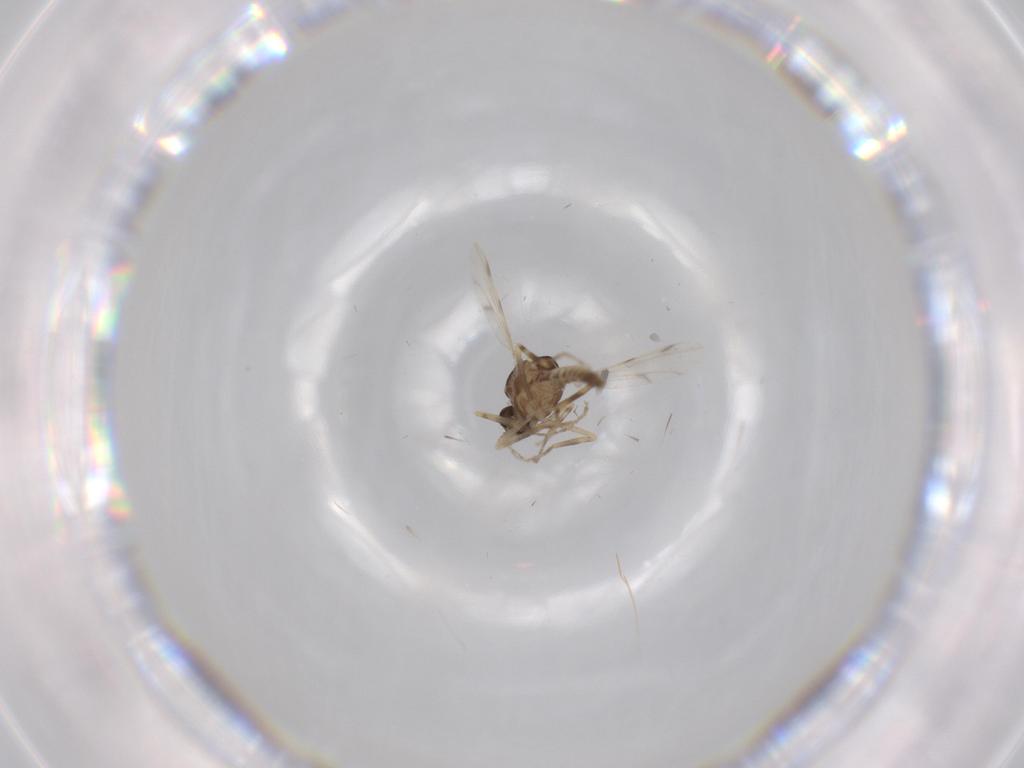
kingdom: Animalia
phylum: Arthropoda
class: Insecta
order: Diptera
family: Ceratopogonidae
